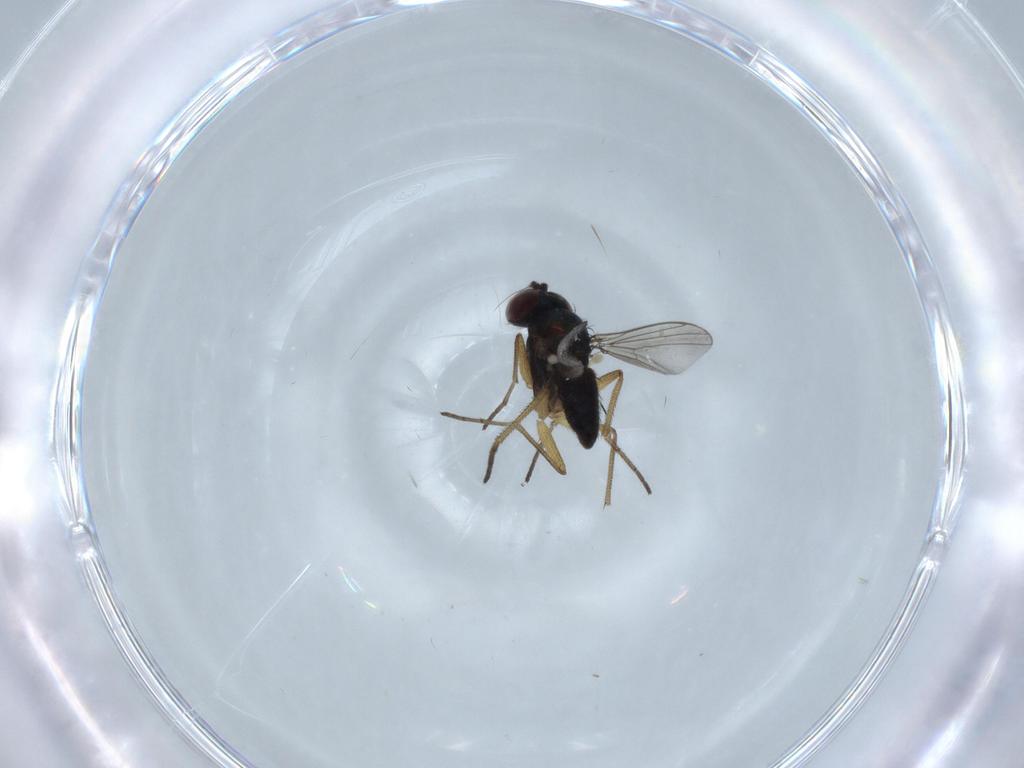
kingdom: Animalia
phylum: Arthropoda
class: Insecta
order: Diptera
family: Dolichopodidae
